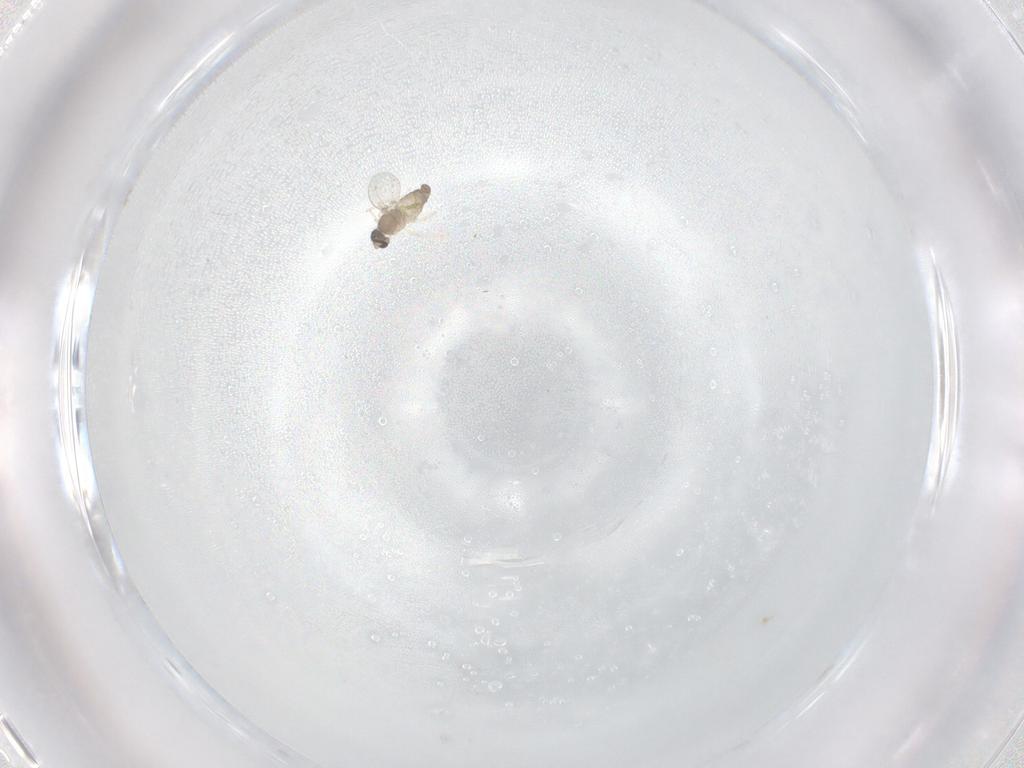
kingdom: Animalia
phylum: Arthropoda
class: Insecta
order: Diptera
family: Cecidomyiidae
